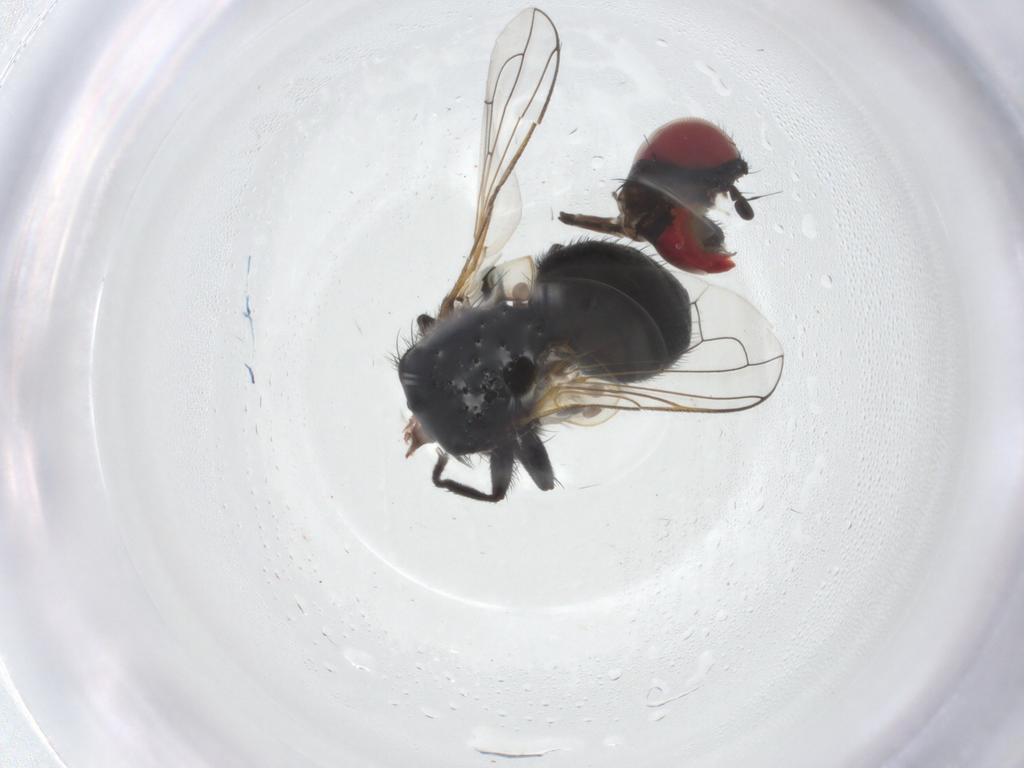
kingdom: Animalia
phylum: Arthropoda
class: Insecta
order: Diptera
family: Tachinidae
